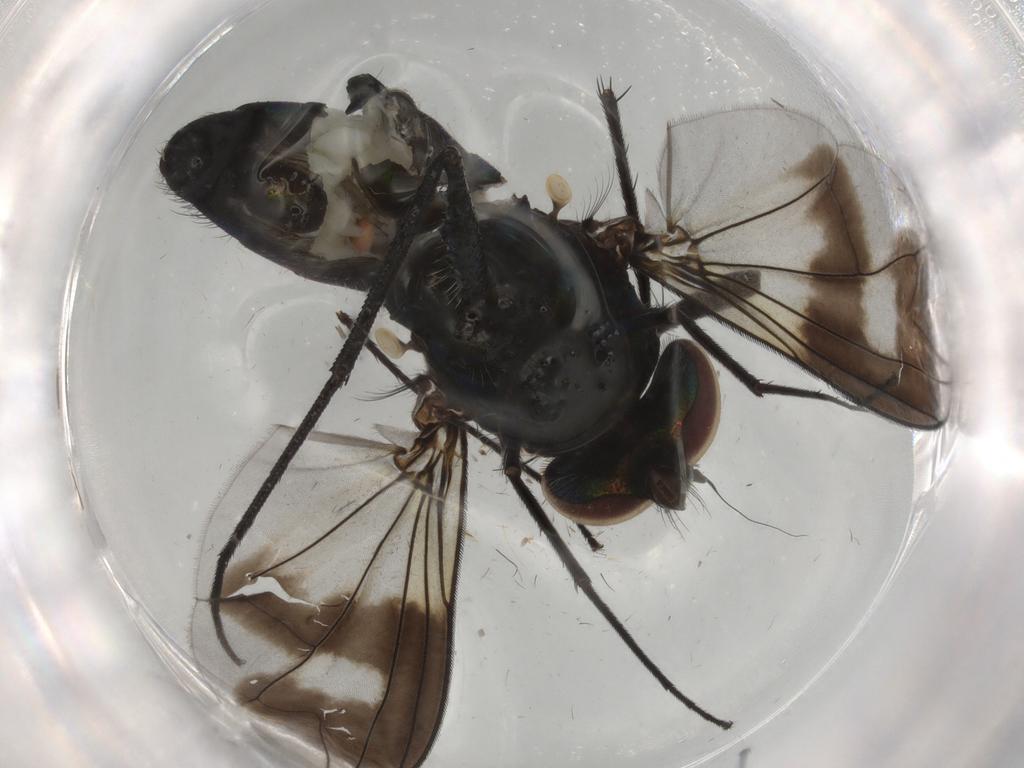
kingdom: Animalia
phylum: Arthropoda
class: Insecta
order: Diptera
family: Dolichopodidae
